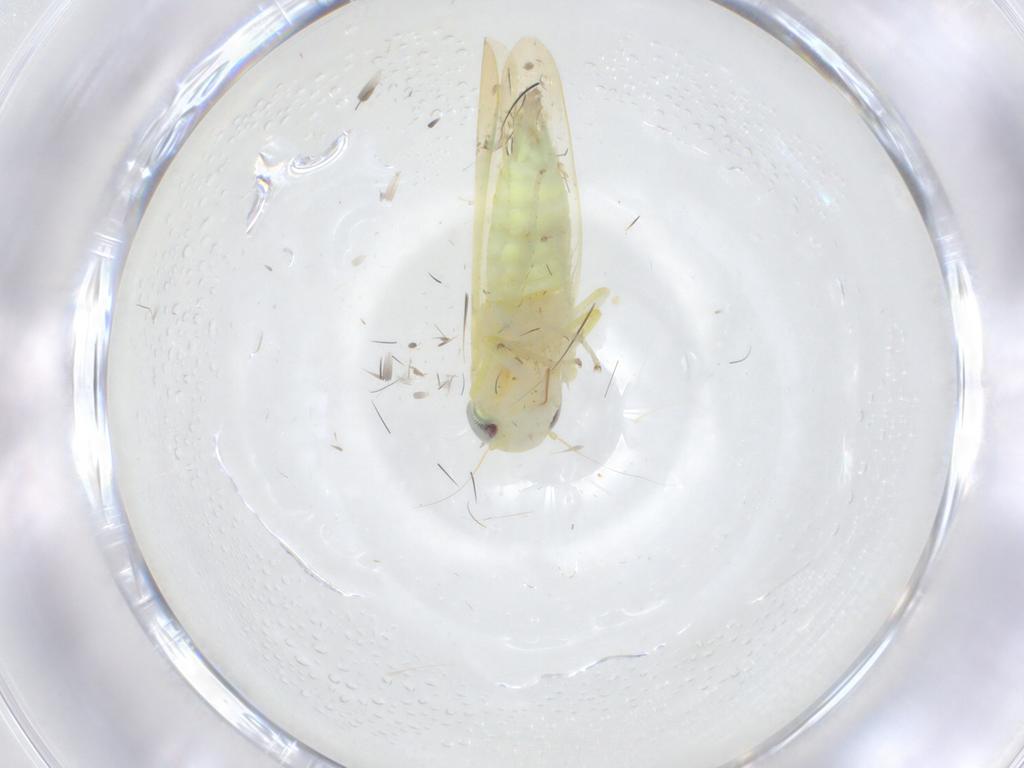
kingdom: Animalia
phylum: Arthropoda
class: Insecta
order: Hemiptera
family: Cicadellidae
